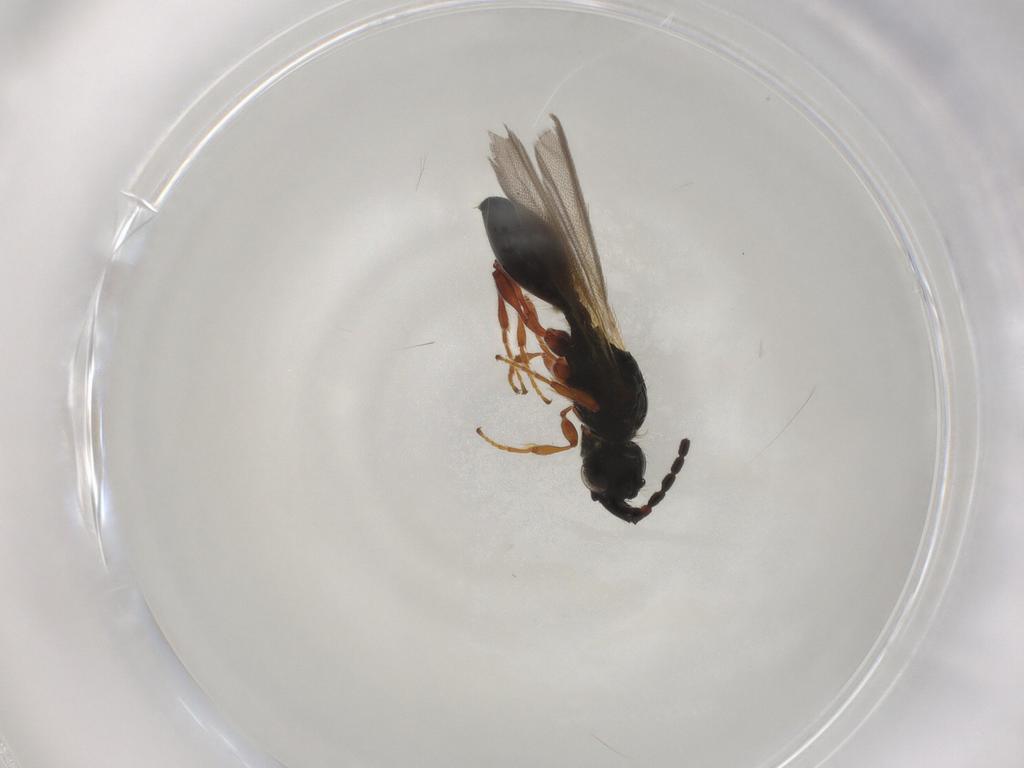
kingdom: Animalia
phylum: Arthropoda
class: Insecta
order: Hymenoptera
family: Diapriidae
